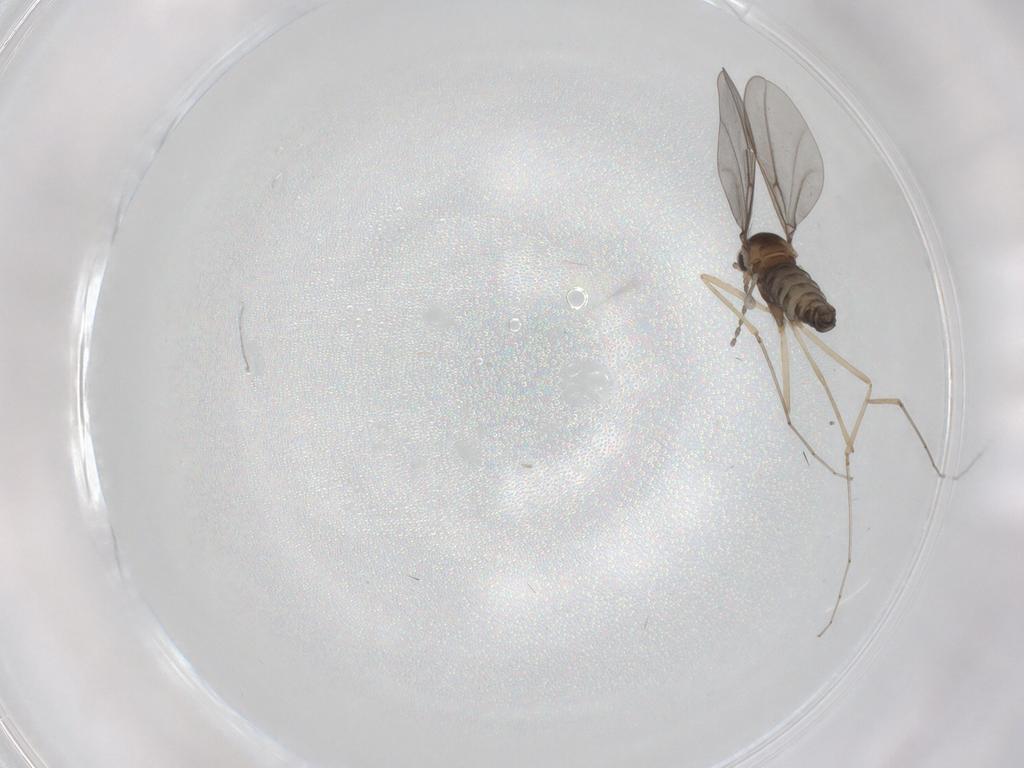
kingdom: Animalia
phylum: Arthropoda
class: Insecta
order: Diptera
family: Cecidomyiidae
